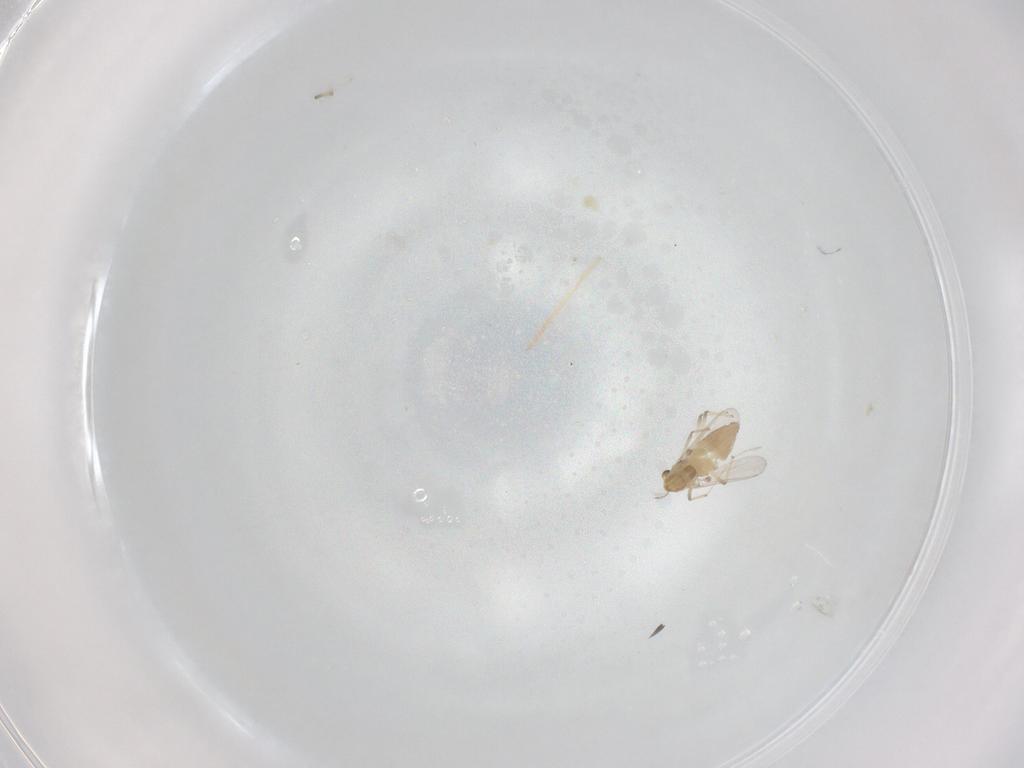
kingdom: Animalia
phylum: Arthropoda
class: Insecta
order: Diptera
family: Chironomidae
